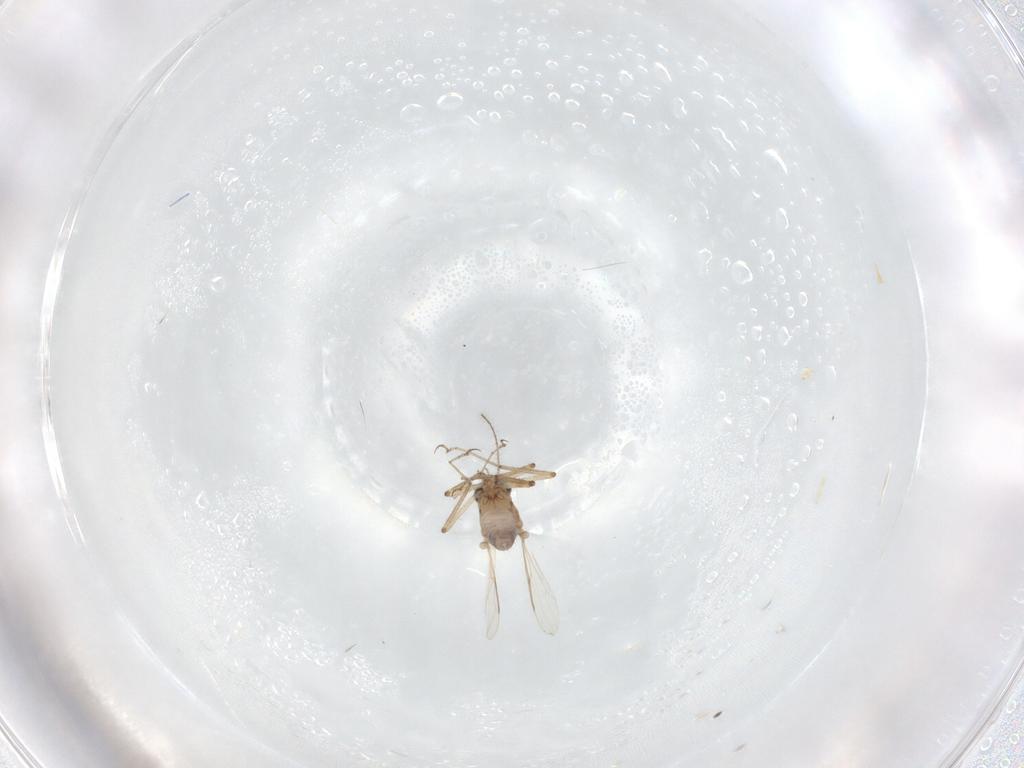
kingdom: Animalia
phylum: Arthropoda
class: Insecta
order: Diptera
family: Ceratopogonidae
